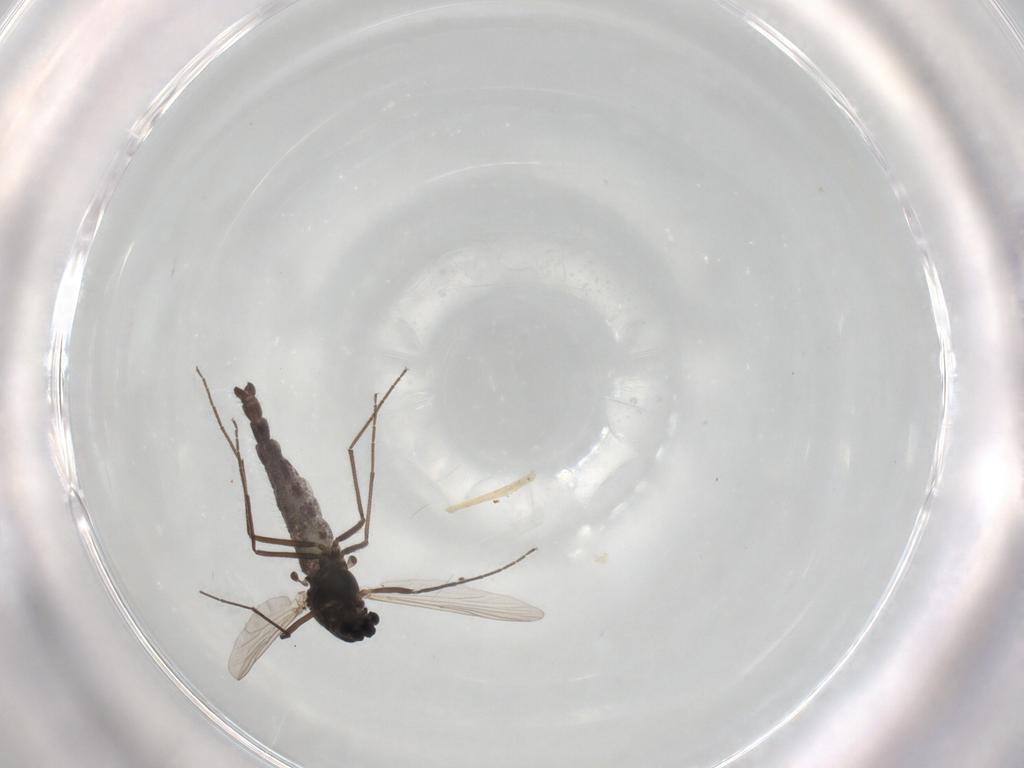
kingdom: Animalia
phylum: Arthropoda
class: Insecta
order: Diptera
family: Chironomidae
